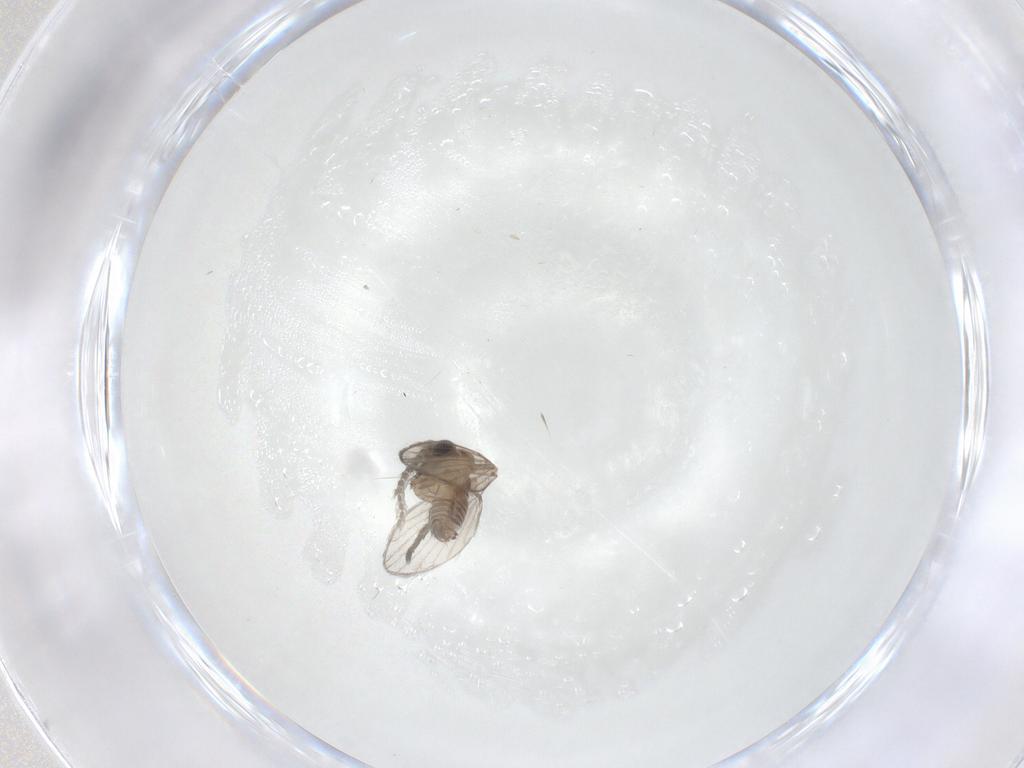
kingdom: Animalia
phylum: Arthropoda
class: Insecta
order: Diptera
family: Psychodidae
